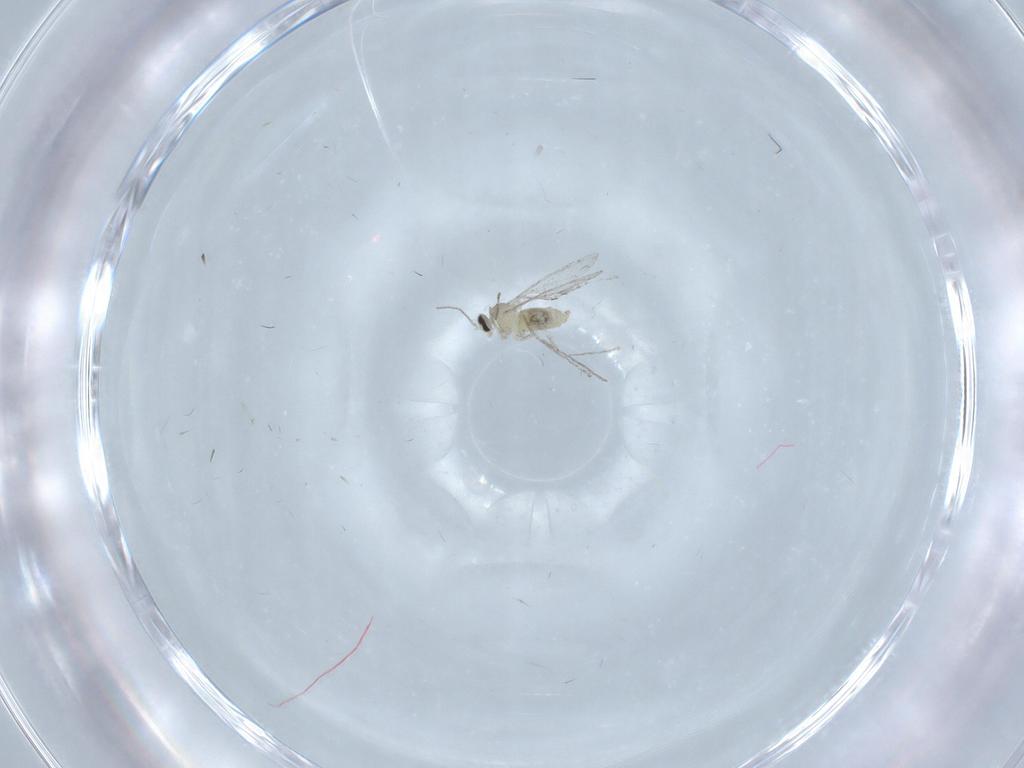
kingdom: Animalia
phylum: Arthropoda
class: Insecta
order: Diptera
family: Cecidomyiidae
